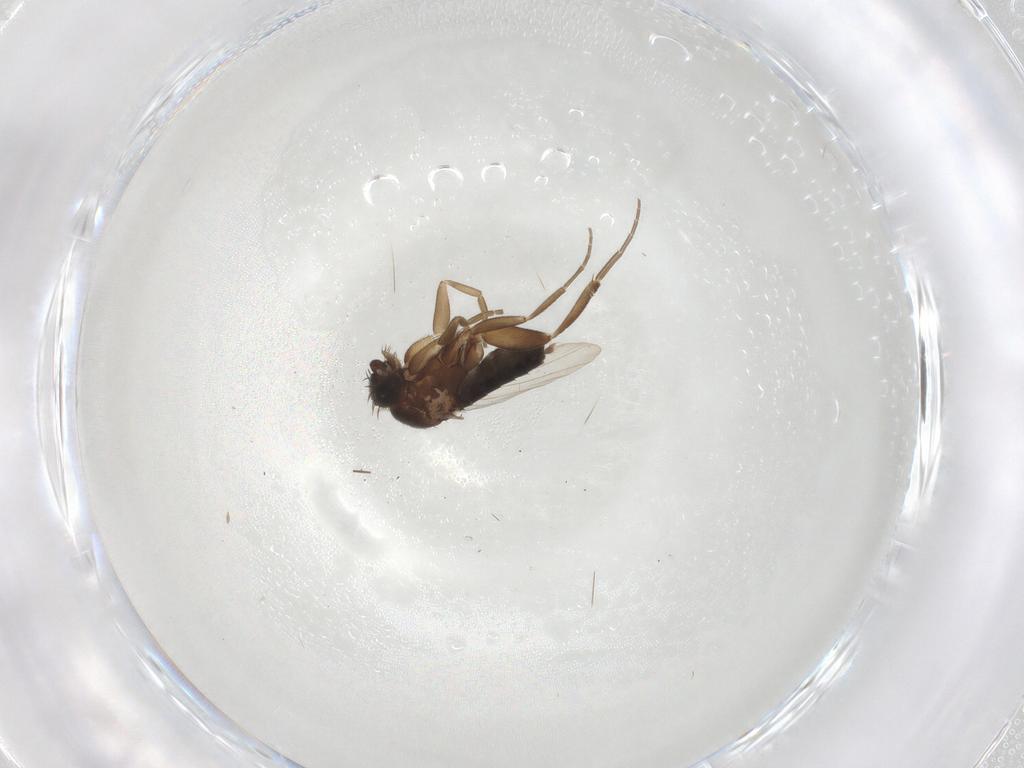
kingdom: Animalia
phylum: Arthropoda
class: Insecta
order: Diptera
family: Phoridae
